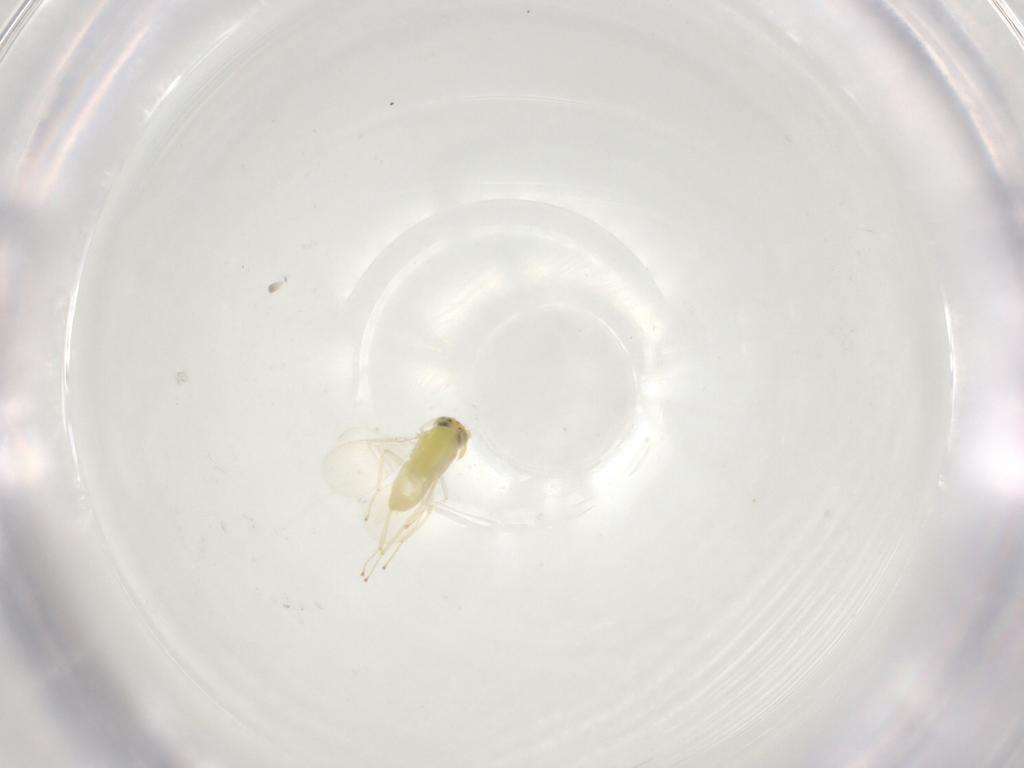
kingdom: Animalia
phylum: Arthropoda
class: Insecta
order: Hymenoptera
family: Aphelinidae
